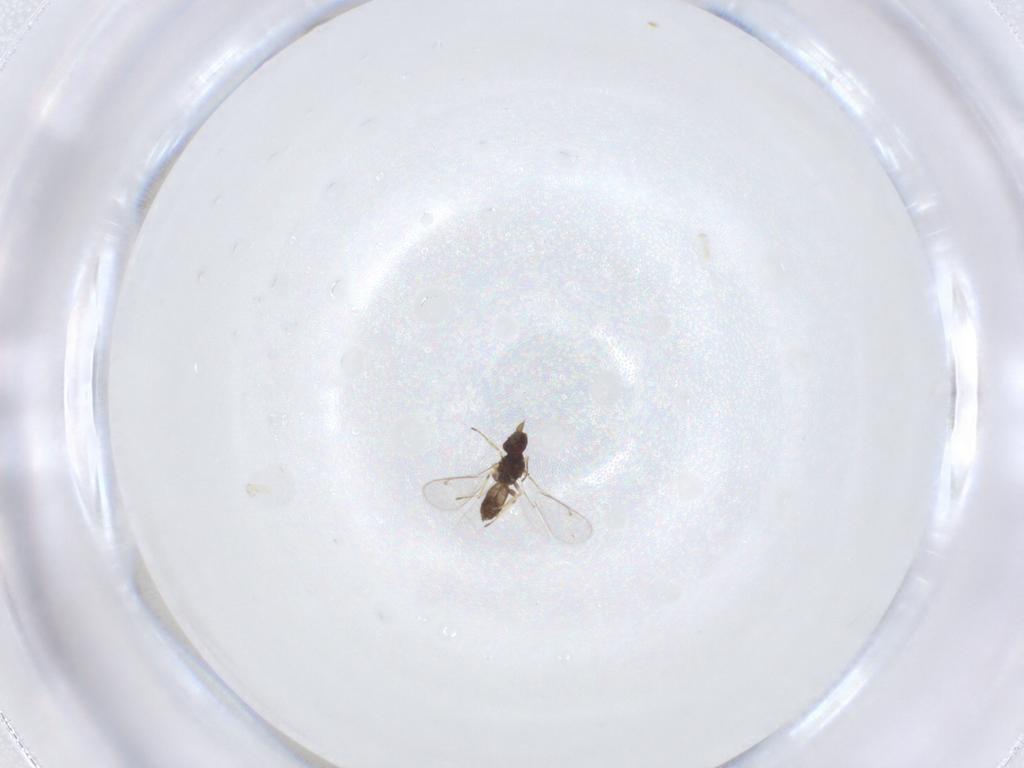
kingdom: Animalia
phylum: Arthropoda
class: Insecta
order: Hymenoptera
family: Eulophidae
